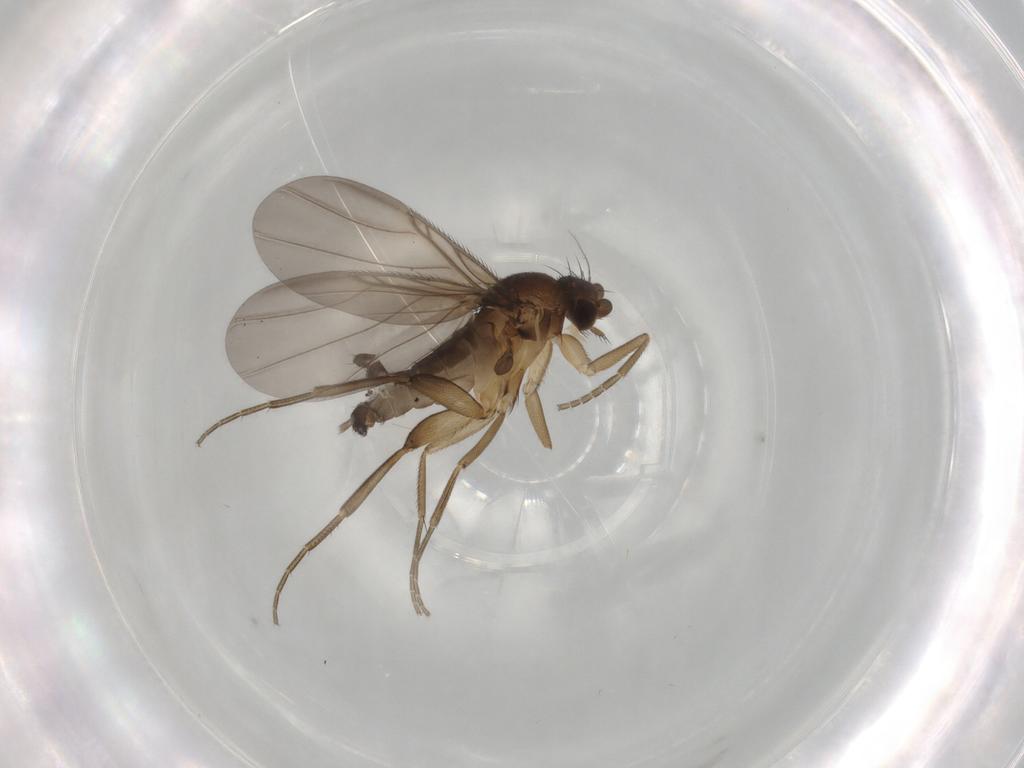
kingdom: Animalia
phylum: Arthropoda
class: Insecta
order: Diptera
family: Phoridae
